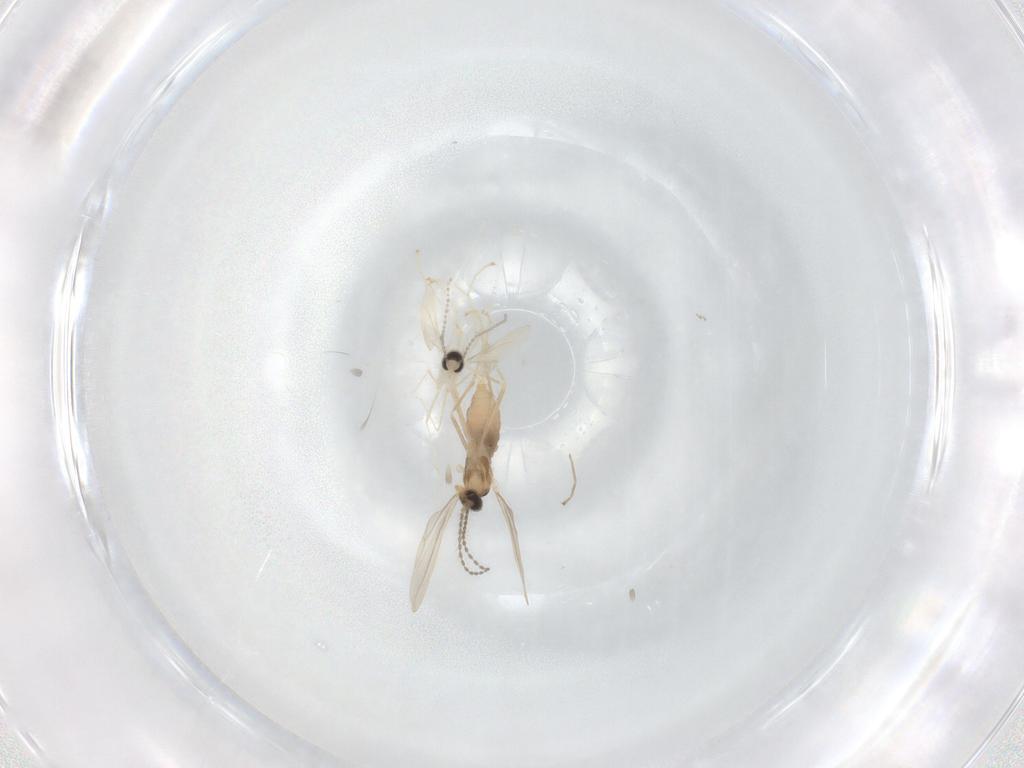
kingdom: Animalia
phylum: Arthropoda
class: Insecta
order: Diptera
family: Cecidomyiidae
